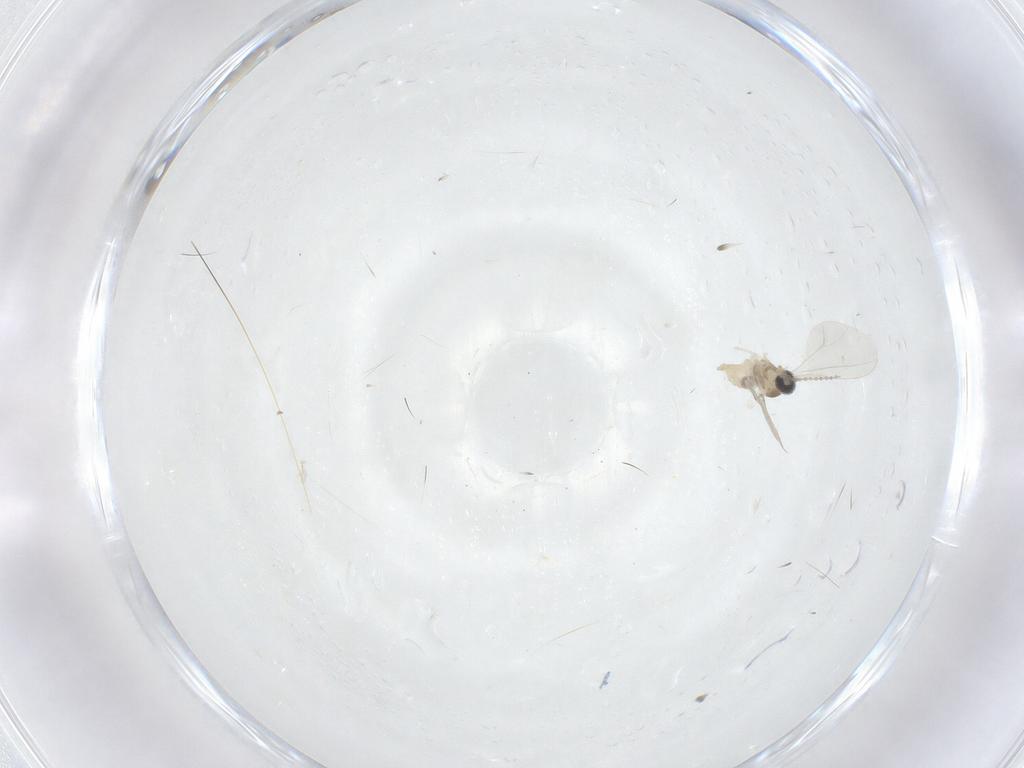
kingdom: Animalia
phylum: Arthropoda
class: Insecta
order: Diptera
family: Cecidomyiidae
